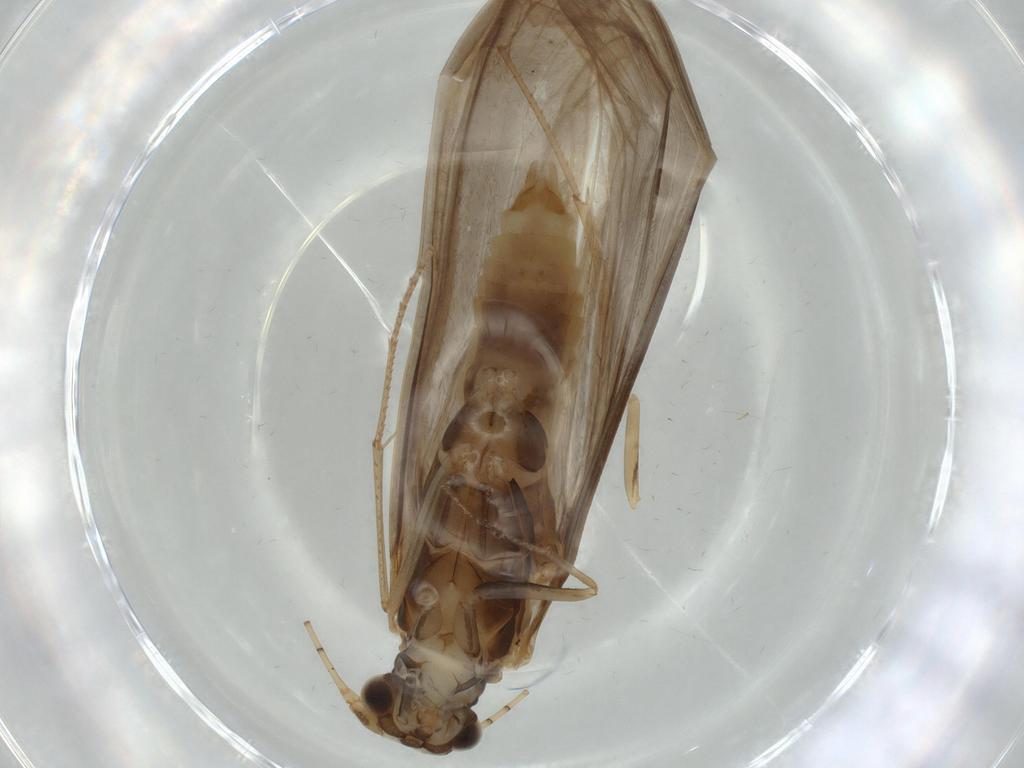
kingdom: Animalia
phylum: Arthropoda
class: Insecta
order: Trichoptera
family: Leptoceridae
